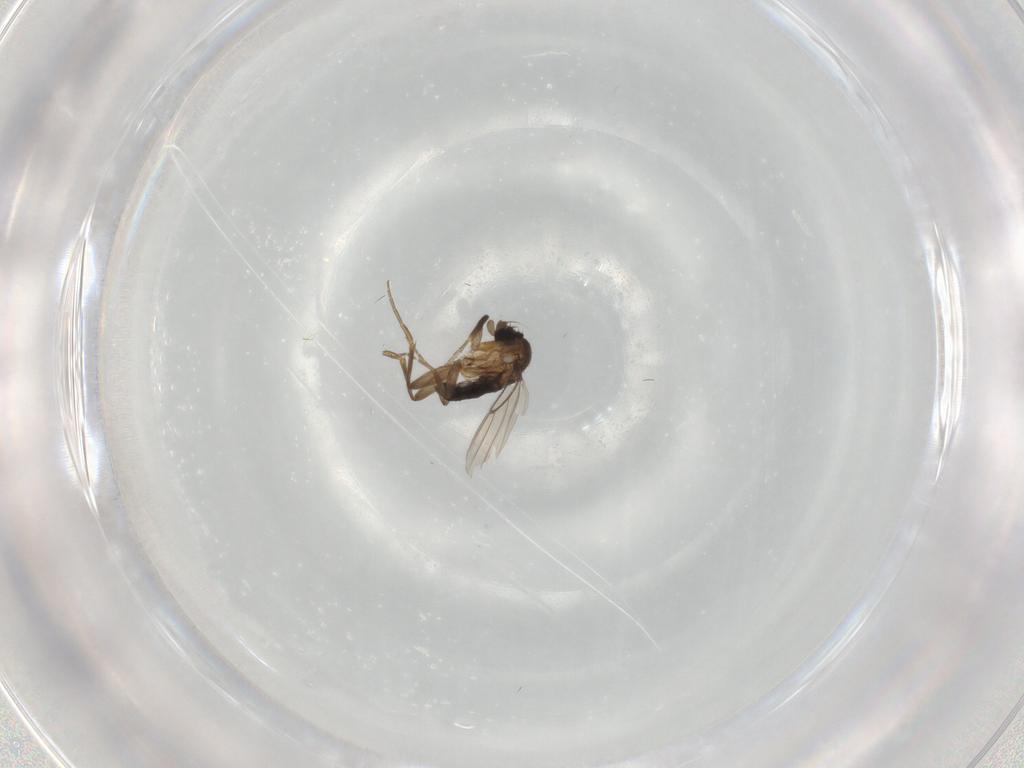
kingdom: Animalia
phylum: Arthropoda
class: Insecta
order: Diptera
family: Phoridae
